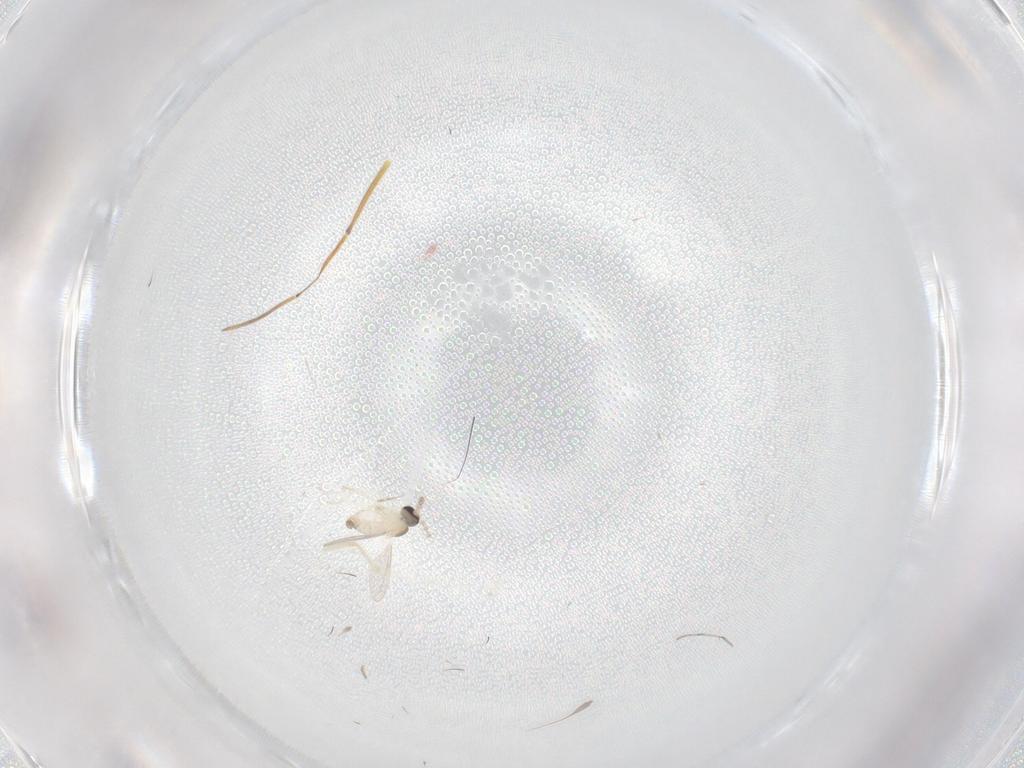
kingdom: Animalia
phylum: Arthropoda
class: Insecta
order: Diptera
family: Cecidomyiidae
